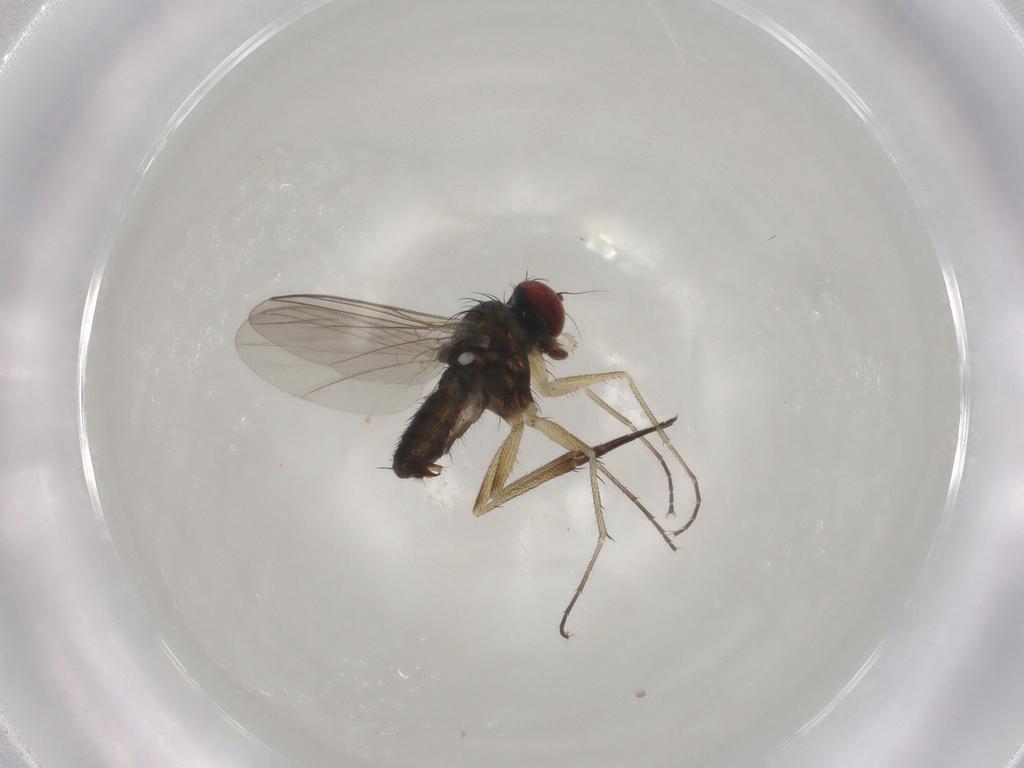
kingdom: Animalia
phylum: Arthropoda
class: Insecta
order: Diptera
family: Dolichopodidae
